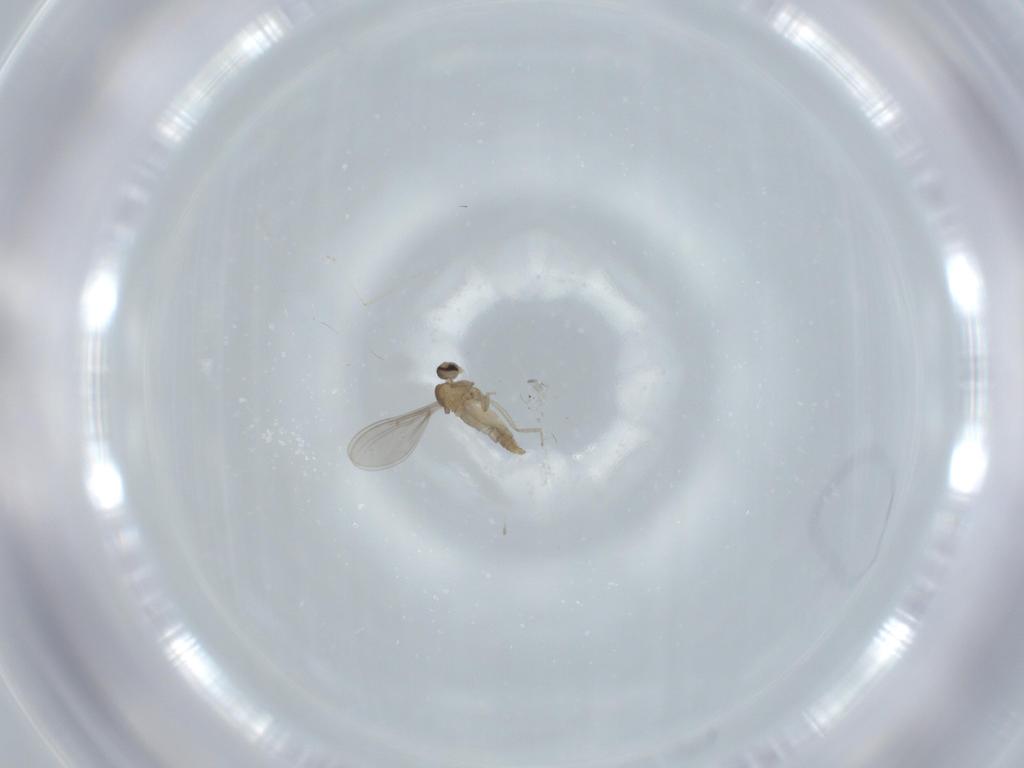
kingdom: Animalia
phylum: Arthropoda
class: Insecta
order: Diptera
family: Cecidomyiidae
